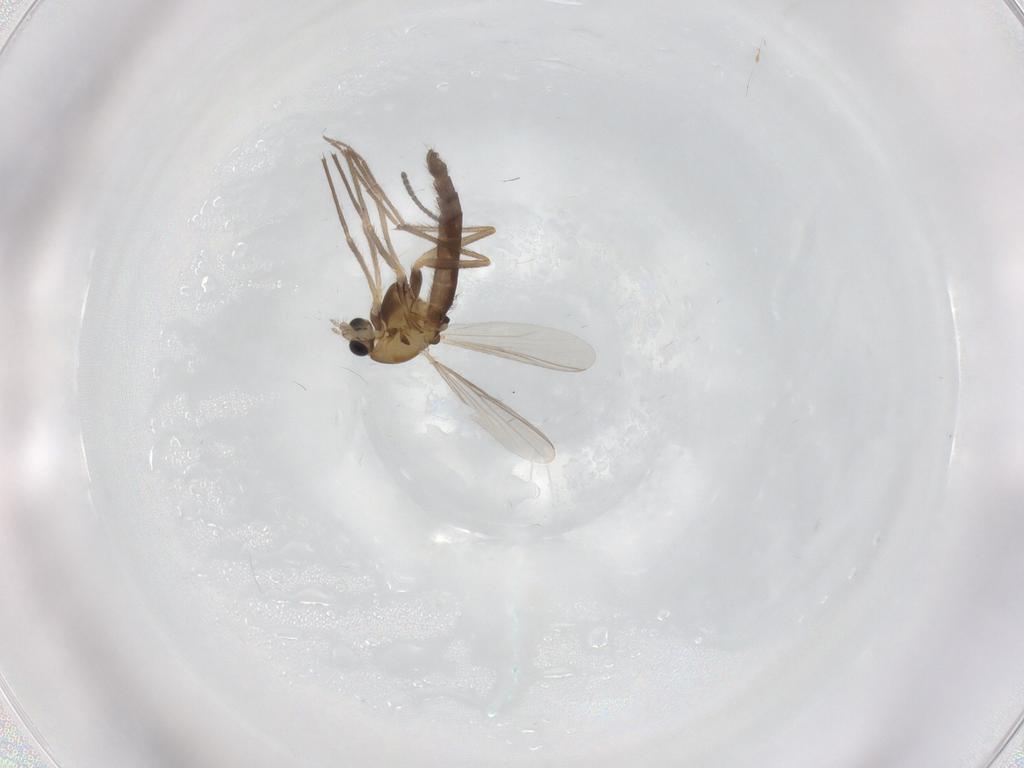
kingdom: Animalia
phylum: Arthropoda
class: Insecta
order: Diptera
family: Chironomidae
